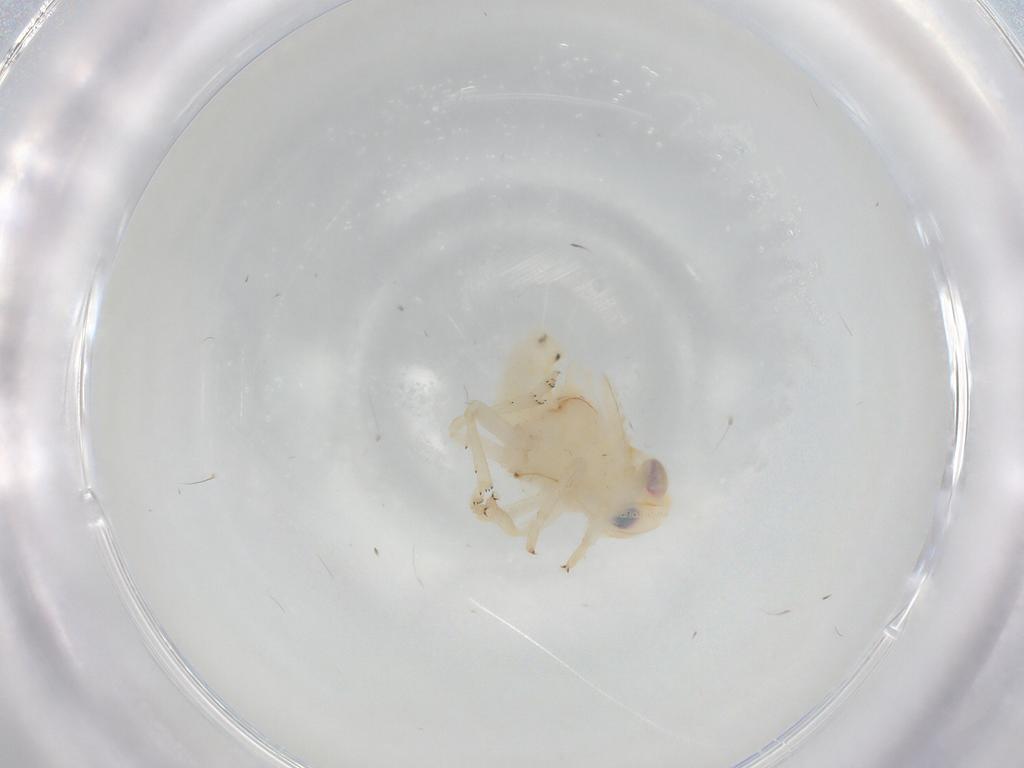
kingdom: Animalia
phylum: Arthropoda
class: Insecta
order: Hemiptera
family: Nogodinidae
